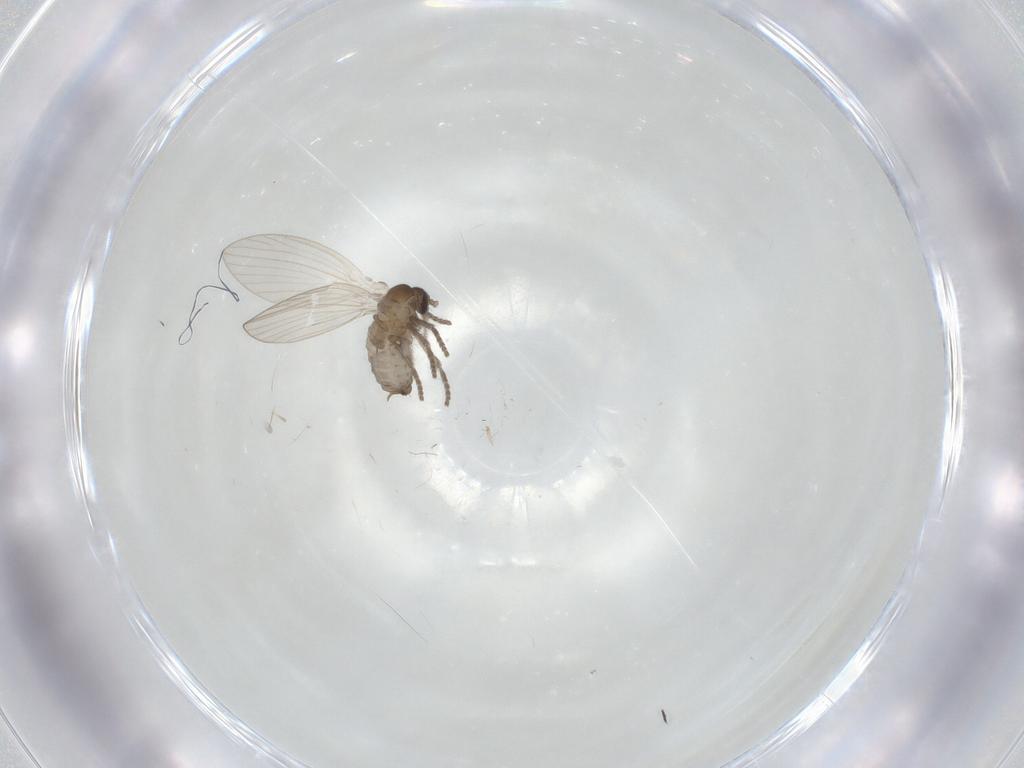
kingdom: Animalia
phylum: Arthropoda
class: Insecta
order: Diptera
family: Psychodidae
